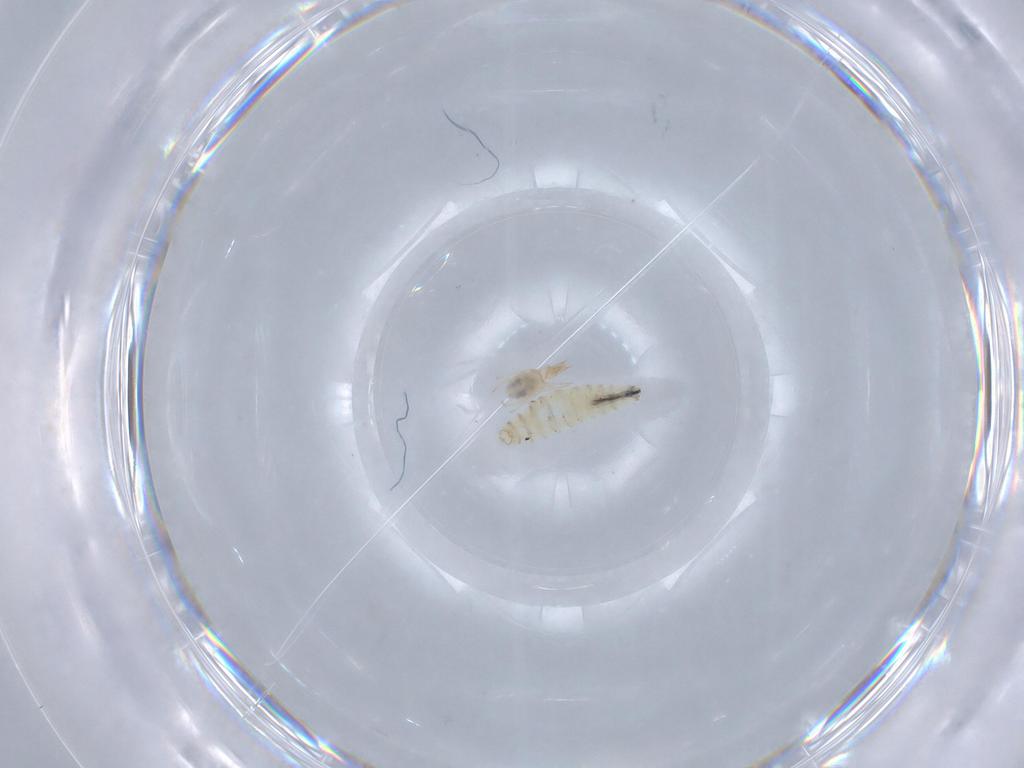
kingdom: Animalia
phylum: Arthropoda
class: Insecta
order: Diptera
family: Sarcophagidae
